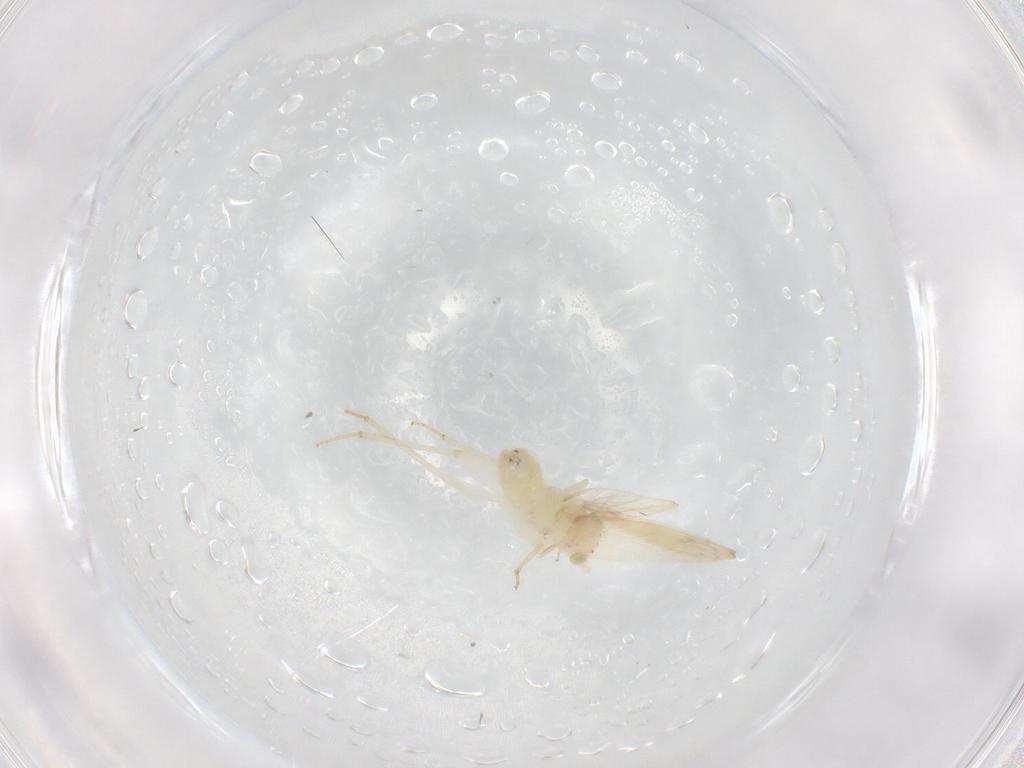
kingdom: Animalia
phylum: Arthropoda
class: Insecta
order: Psocodea
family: Lepidopsocidae
